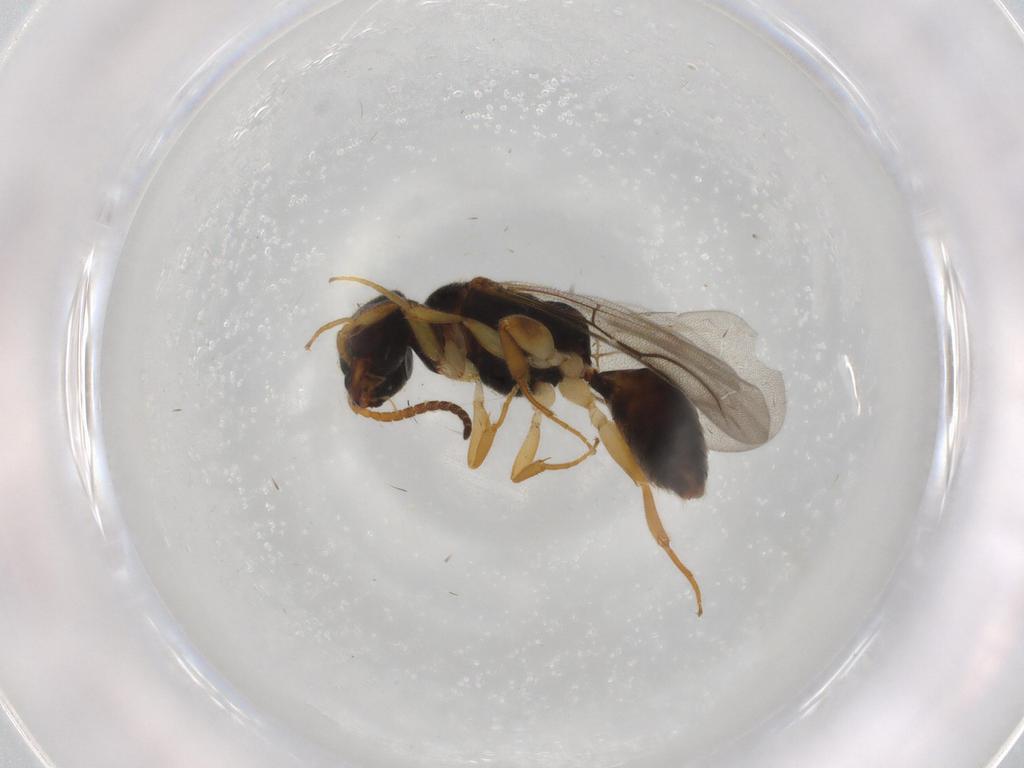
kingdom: Animalia
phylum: Arthropoda
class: Insecta
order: Hymenoptera
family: Bethylidae
